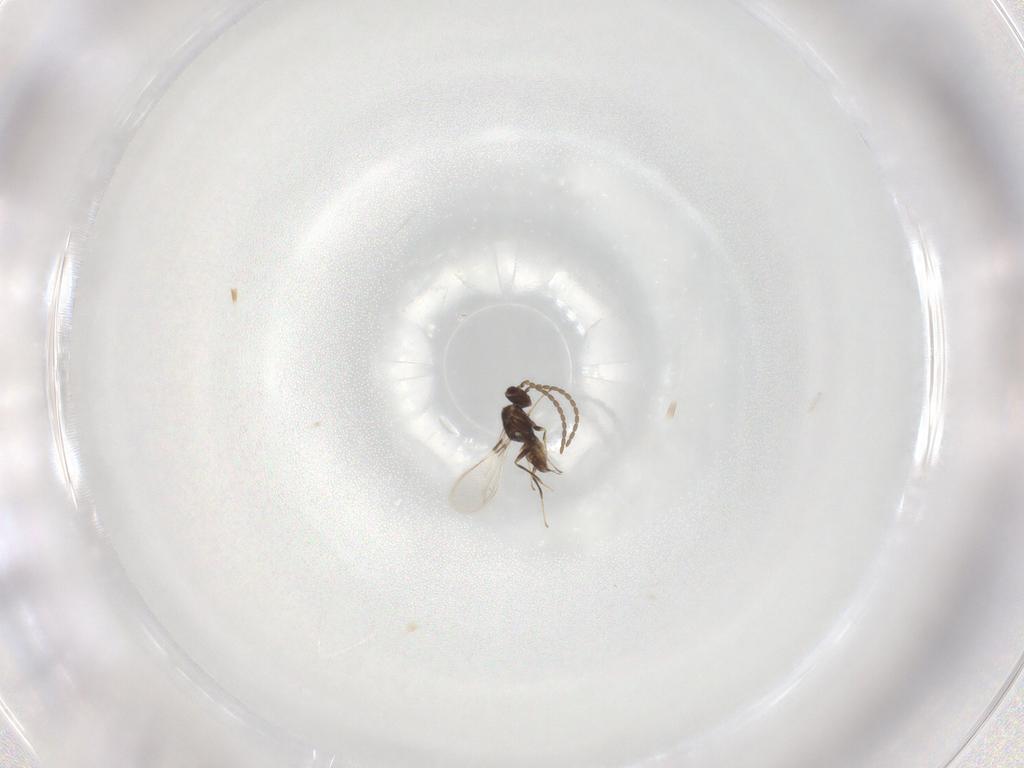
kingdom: Animalia
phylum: Arthropoda
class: Insecta
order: Hymenoptera
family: Mymaridae
